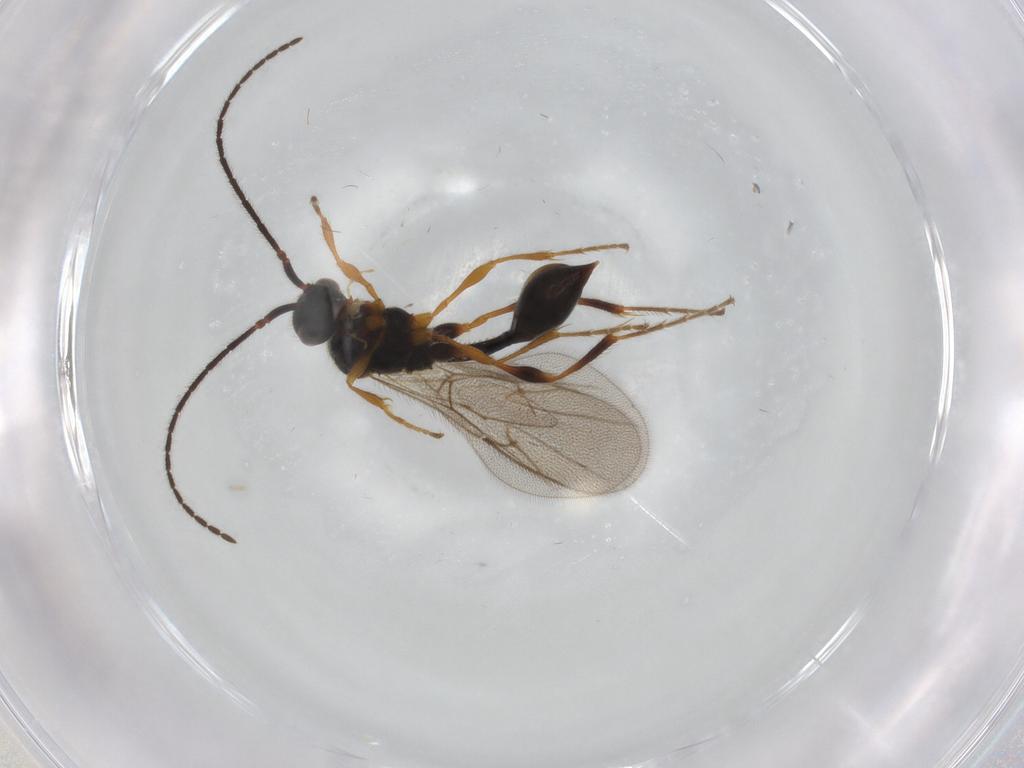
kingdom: Animalia
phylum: Arthropoda
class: Insecta
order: Hymenoptera
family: Diapriidae
